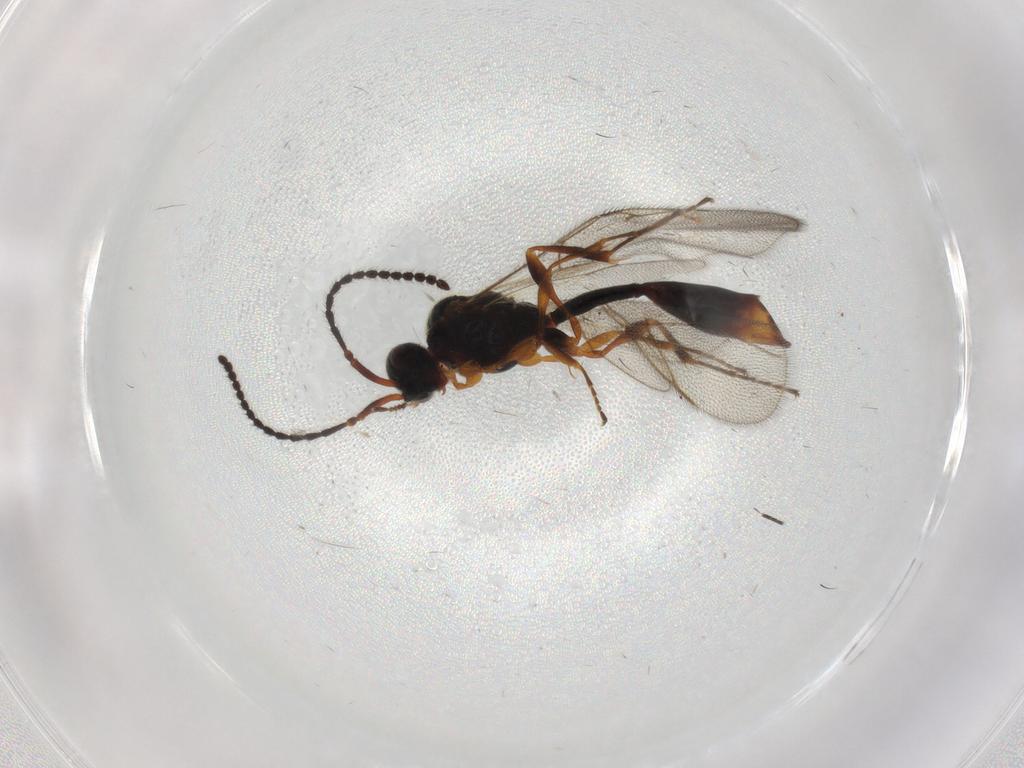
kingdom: Animalia
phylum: Arthropoda
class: Insecta
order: Hymenoptera
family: Diapriidae
